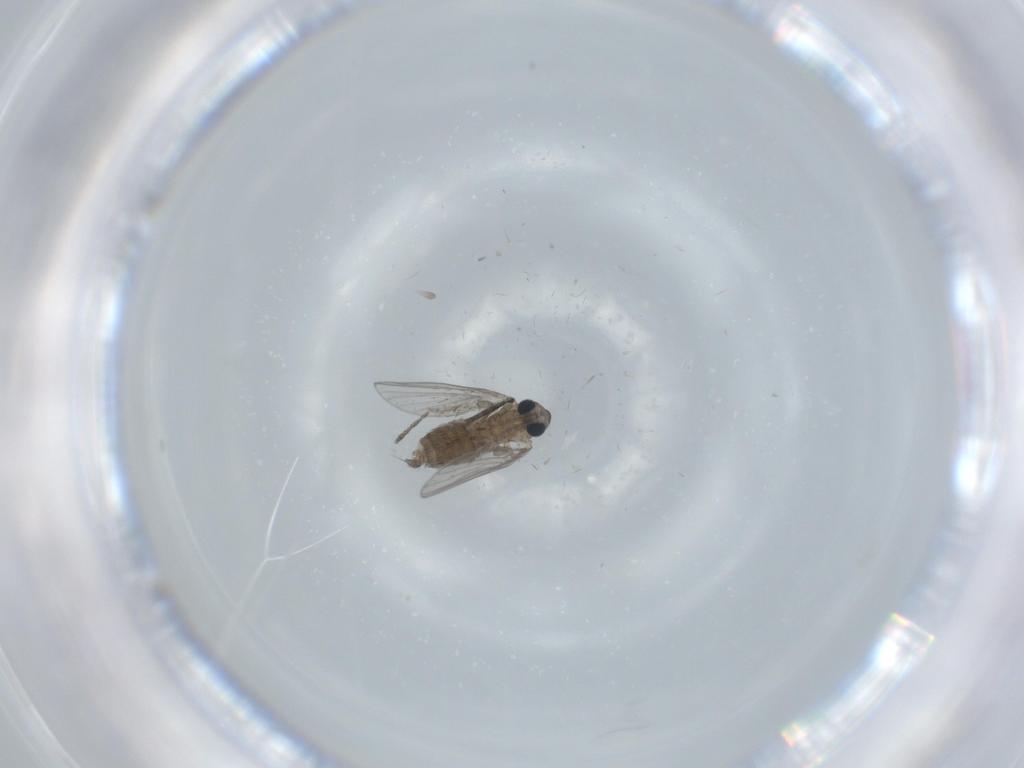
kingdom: Animalia
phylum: Arthropoda
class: Insecta
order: Diptera
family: Psychodidae
